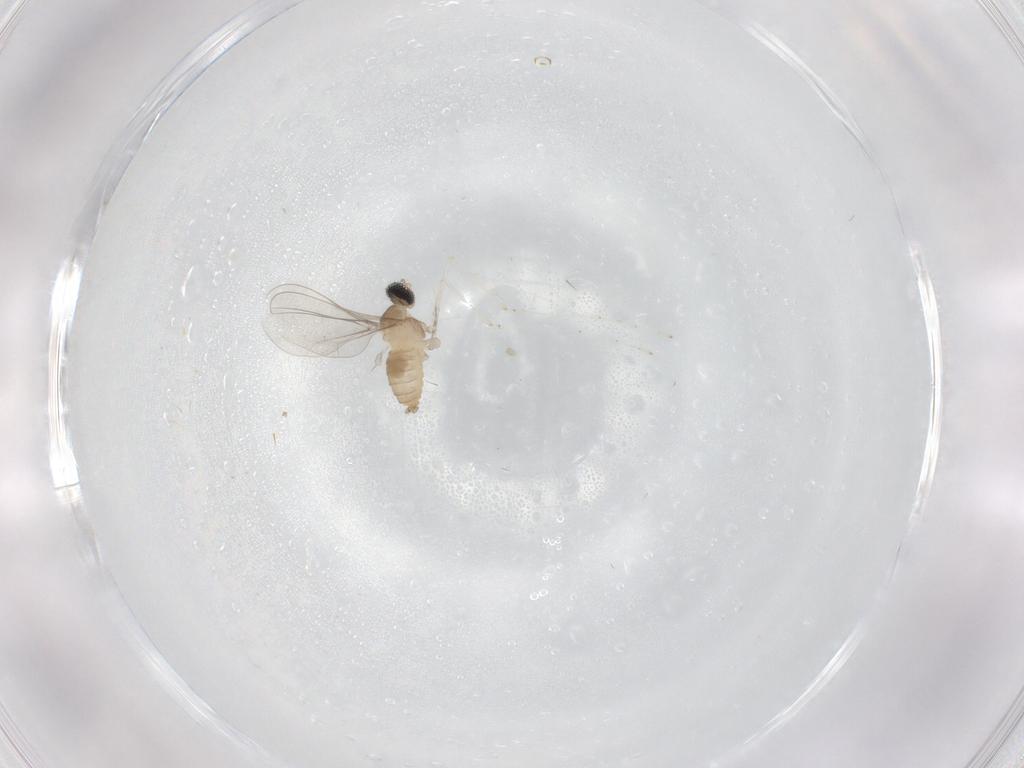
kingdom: Animalia
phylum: Arthropoda
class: Insecta
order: Diptera
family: Cecidomyiidae
